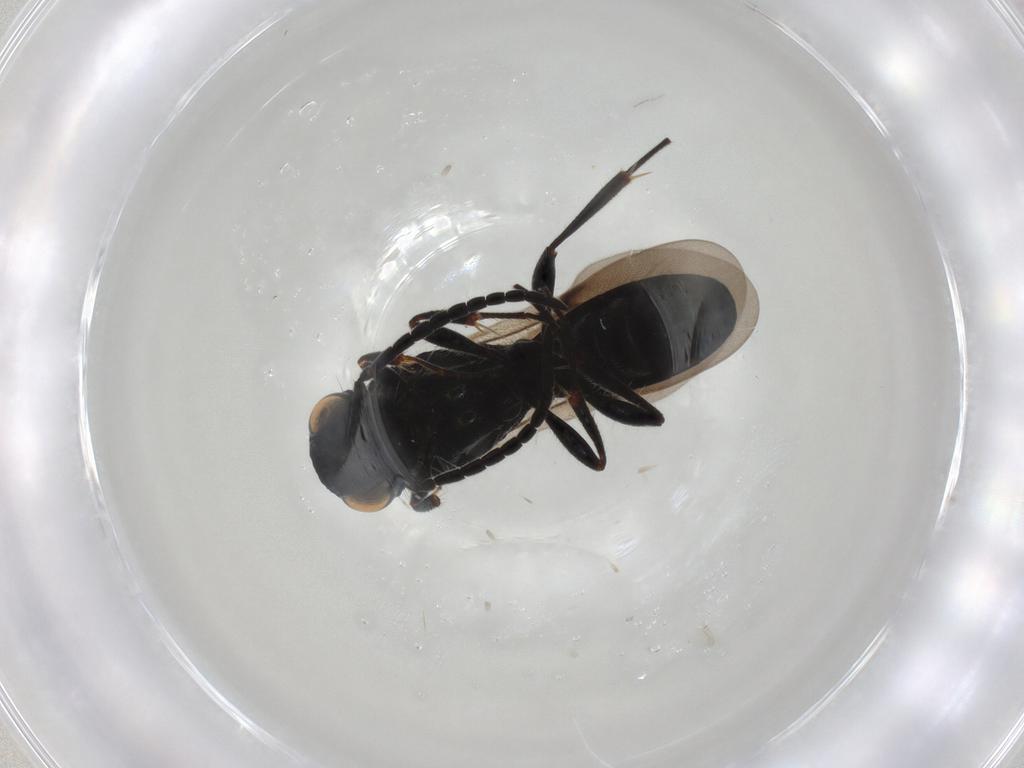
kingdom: Animalia
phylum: Arthropoda
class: Insecta
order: Hymenoptera
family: Sparasionidae
